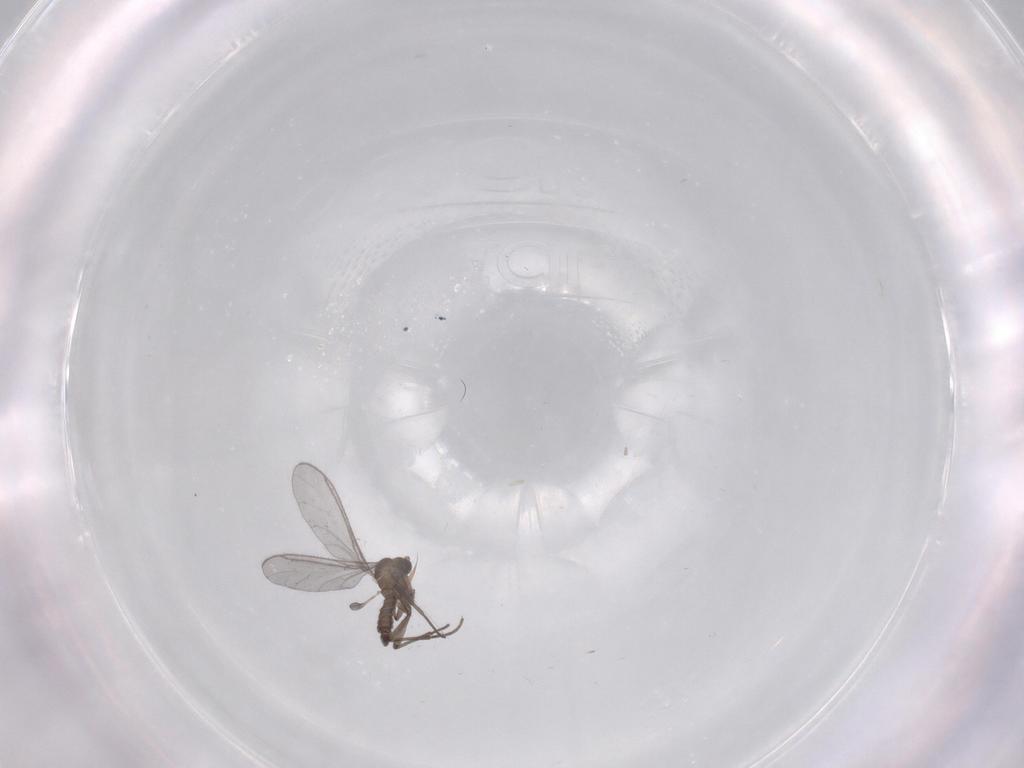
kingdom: Animalia
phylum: Arthropoda
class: Insecta
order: Diptera
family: Sciaridae
